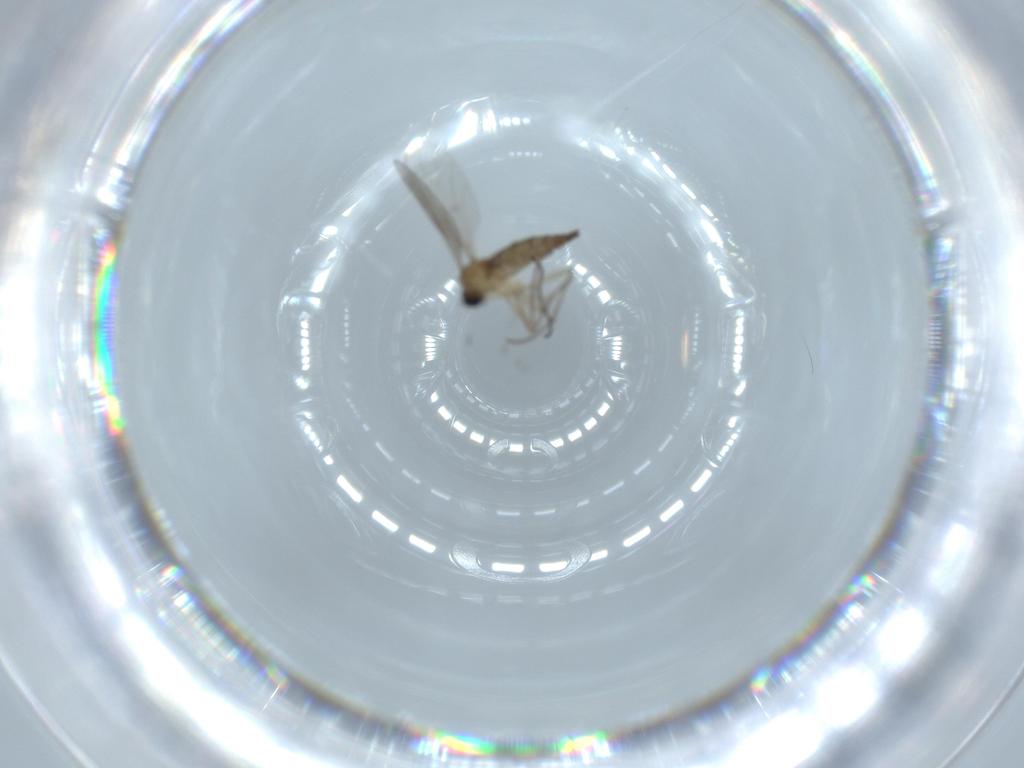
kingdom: Animalia
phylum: Arthropoda
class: Insecta
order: Diptera
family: Sciaridae
